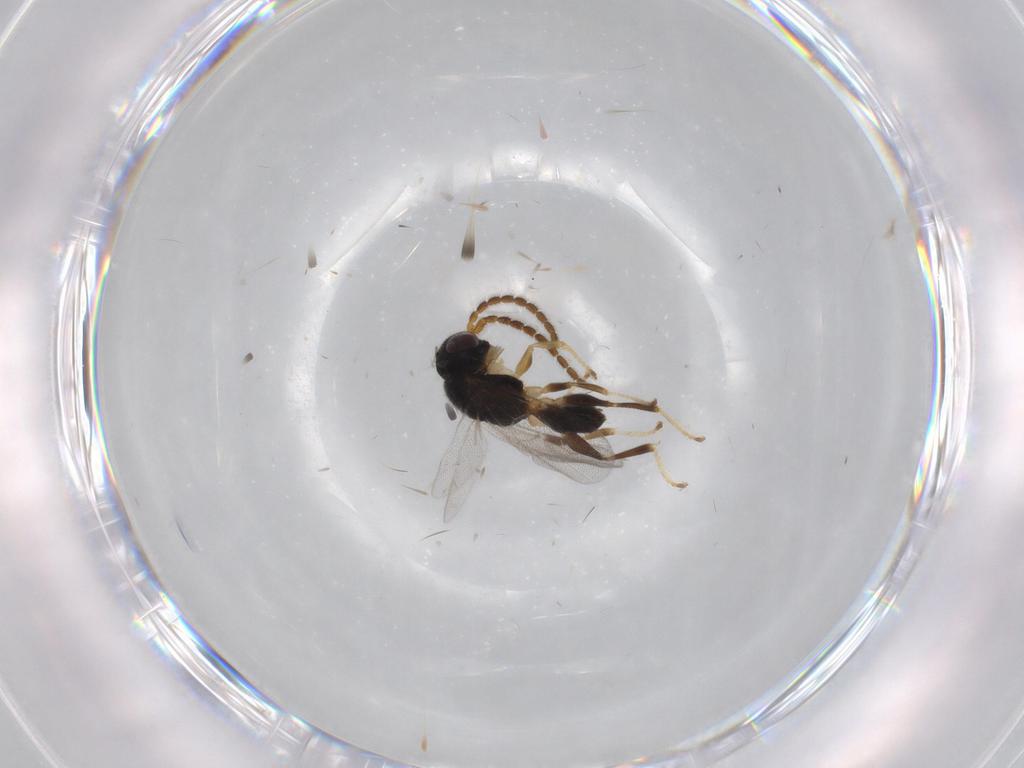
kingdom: Animalia
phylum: Arthropoda
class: Insecta
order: Hymenoptera
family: Dryinidae
